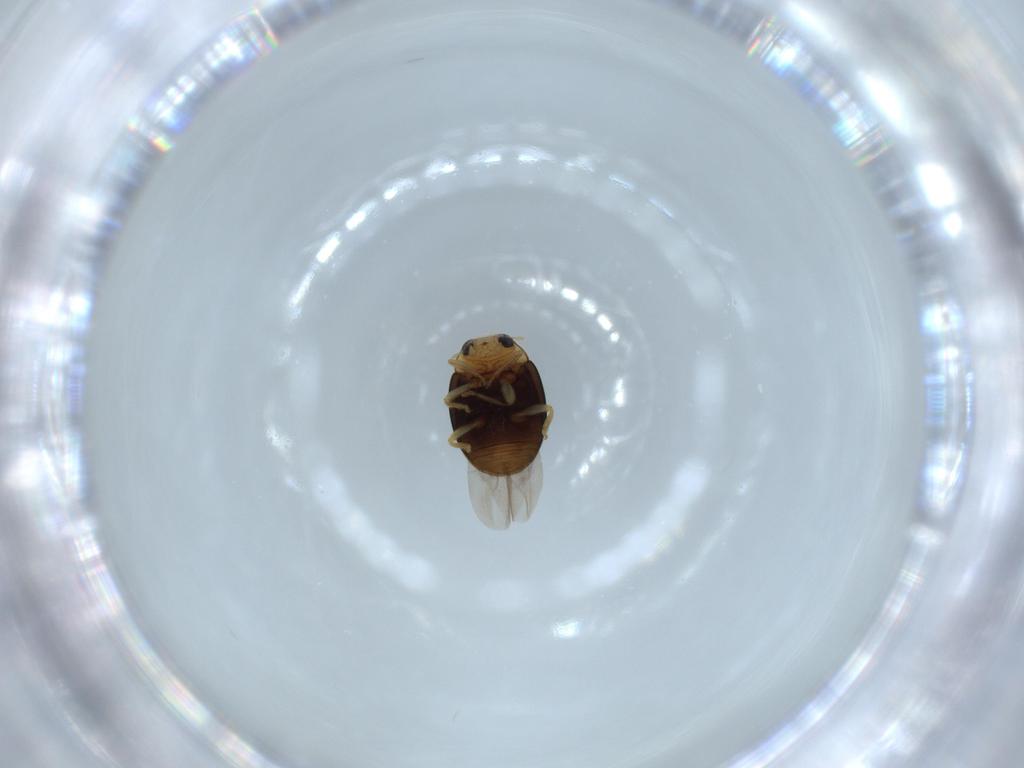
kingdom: Animalia
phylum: Arthropoda
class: Insecta
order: Coleoptera
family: Coccinellidae
